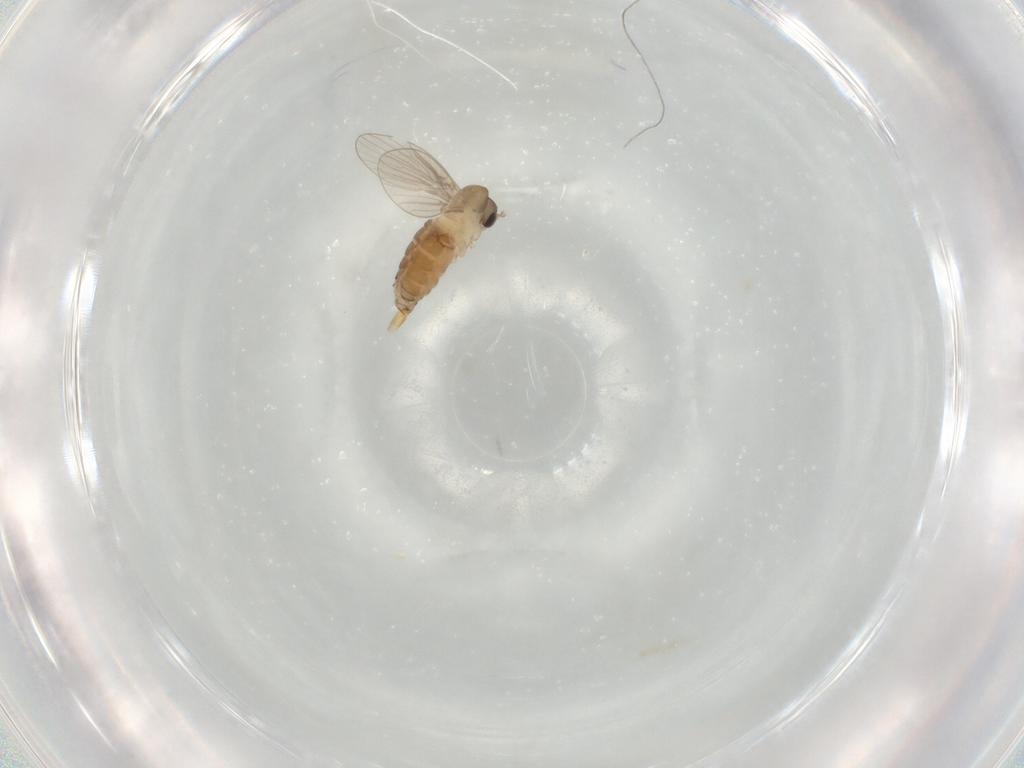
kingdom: Animalia
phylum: Arthropoda
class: Insecta
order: Diptera
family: Psychodidae
